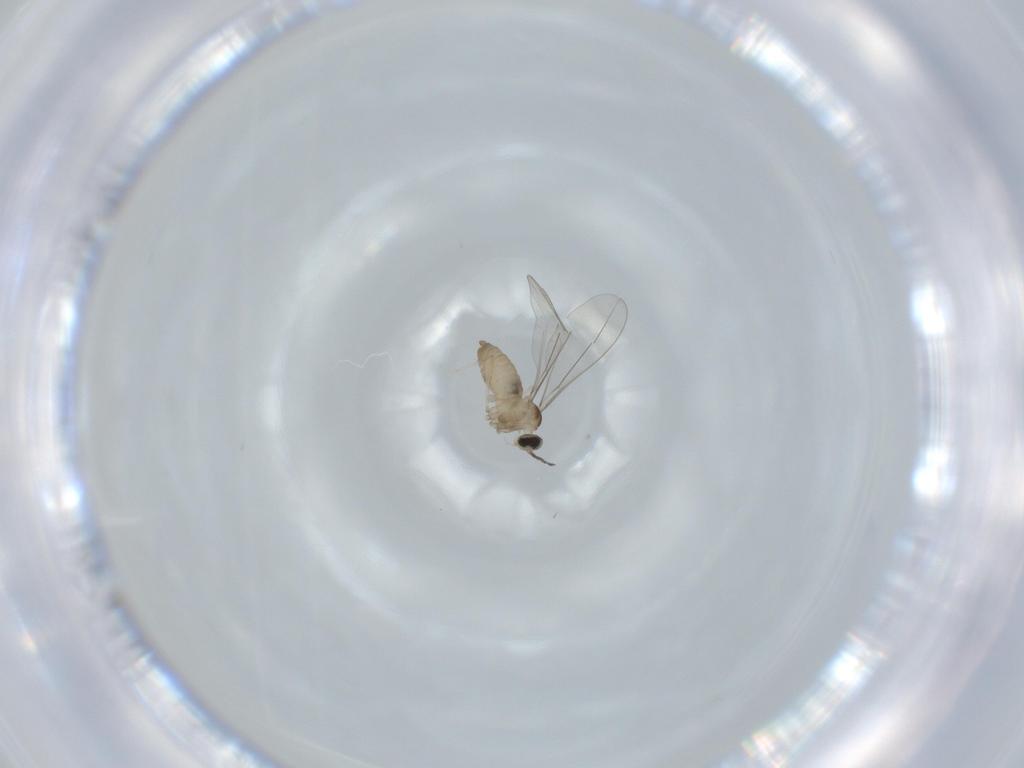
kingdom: Animalia
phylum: Arthropoda
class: Insecta
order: Diptera
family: Cecidomyiidae
